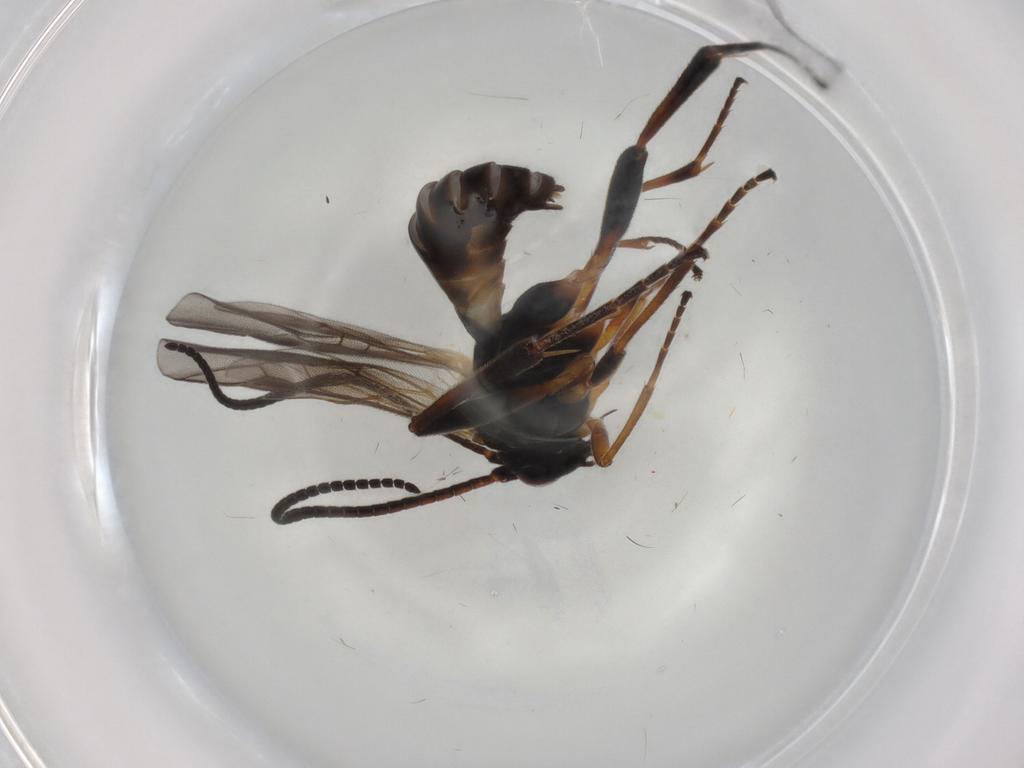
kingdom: Animalia
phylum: Arthropoda
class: Insecta
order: Hymenoptera
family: Braconidae
